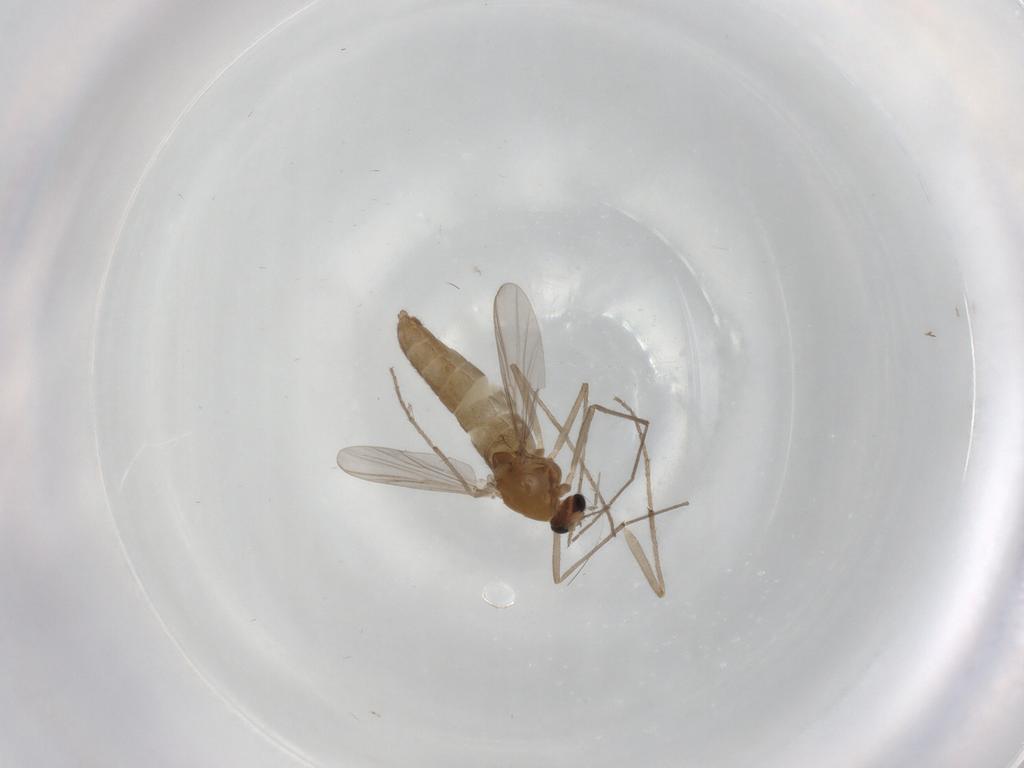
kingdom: Animalia
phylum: Arthropoda
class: Insecta
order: Diptera
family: Chironomidae
